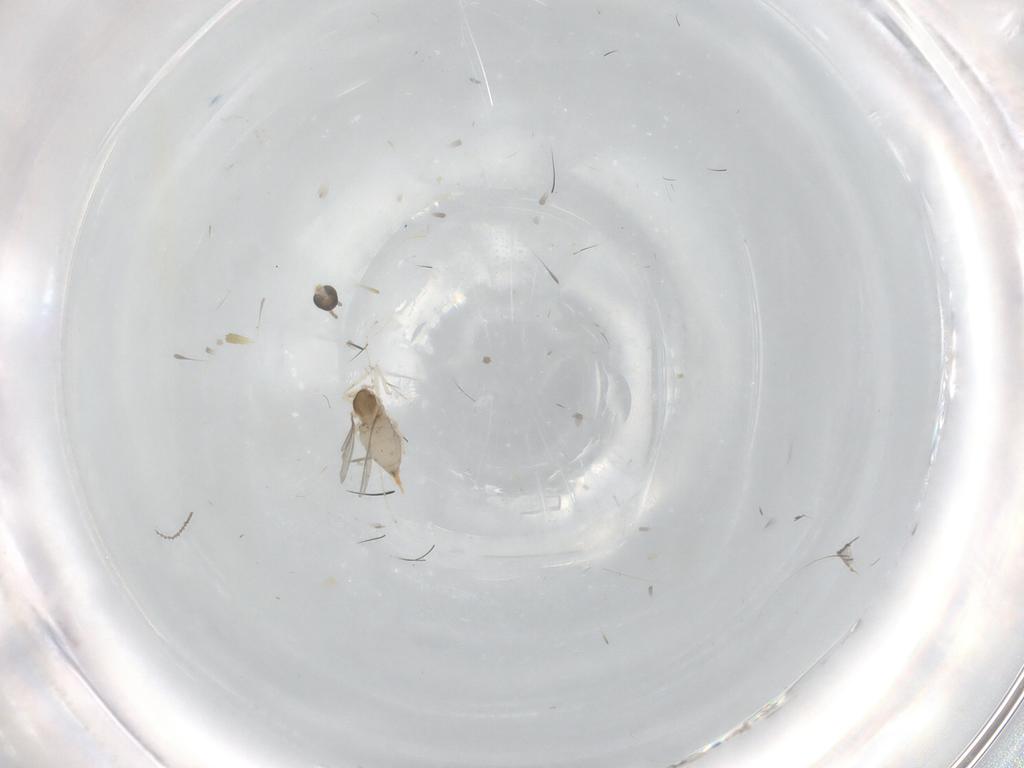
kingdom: Animalia
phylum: Arthropoda
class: Insecta
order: Diptera
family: Cecidomyiidae
